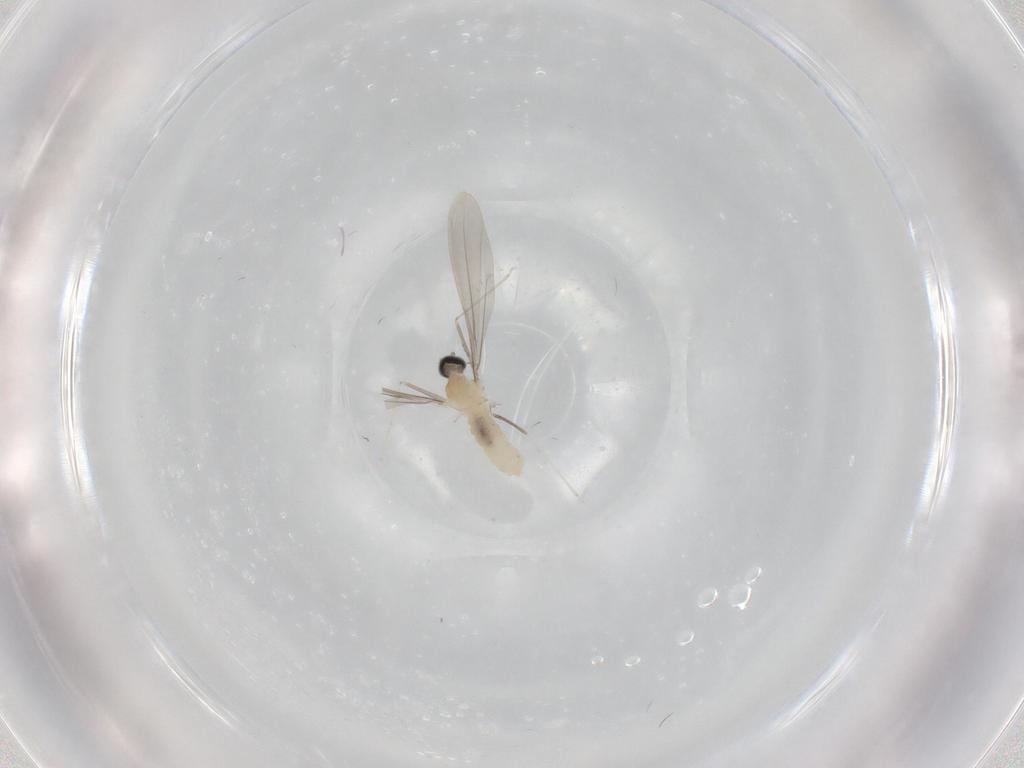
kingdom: Animalia
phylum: Arthropoda
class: Insecta
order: Diptera
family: Cecidomyiidae
